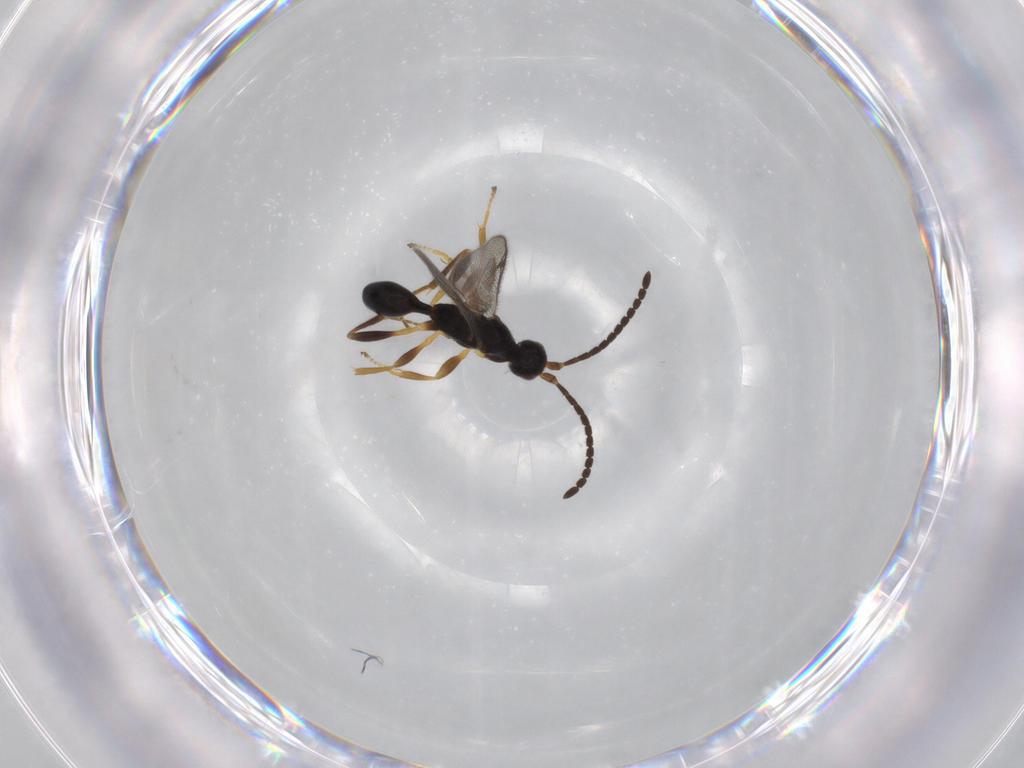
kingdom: Animalia
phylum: Arthropoda
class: Insecta
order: Hymenoptera
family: Proctotrupidae
